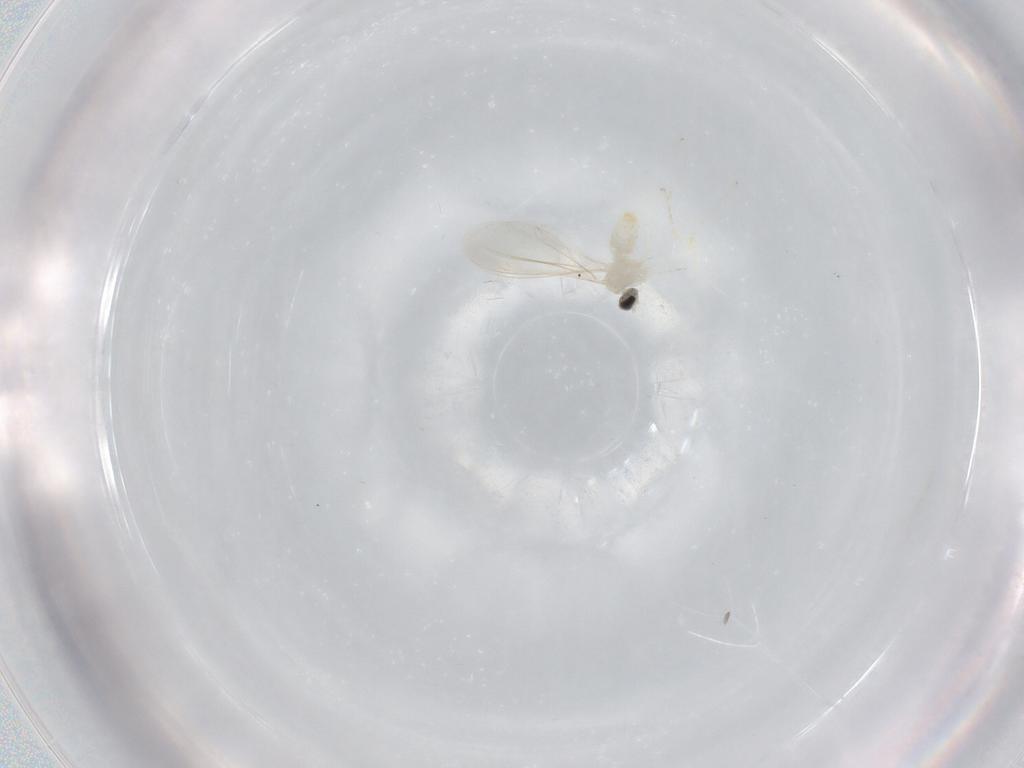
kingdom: Animalia
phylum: Arthropoda
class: Insecta
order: Diptera
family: Cecidomyiidae
